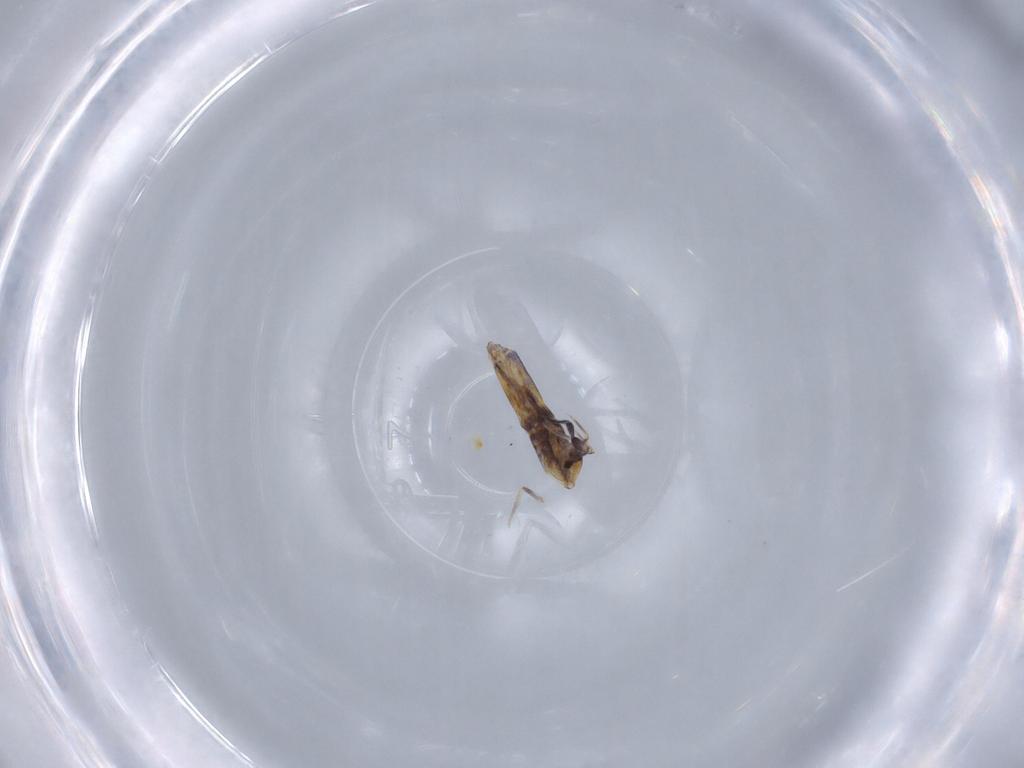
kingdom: Animalia
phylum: Arthropoda
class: Collembola
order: Poduromorpha
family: Hypogastruridae
